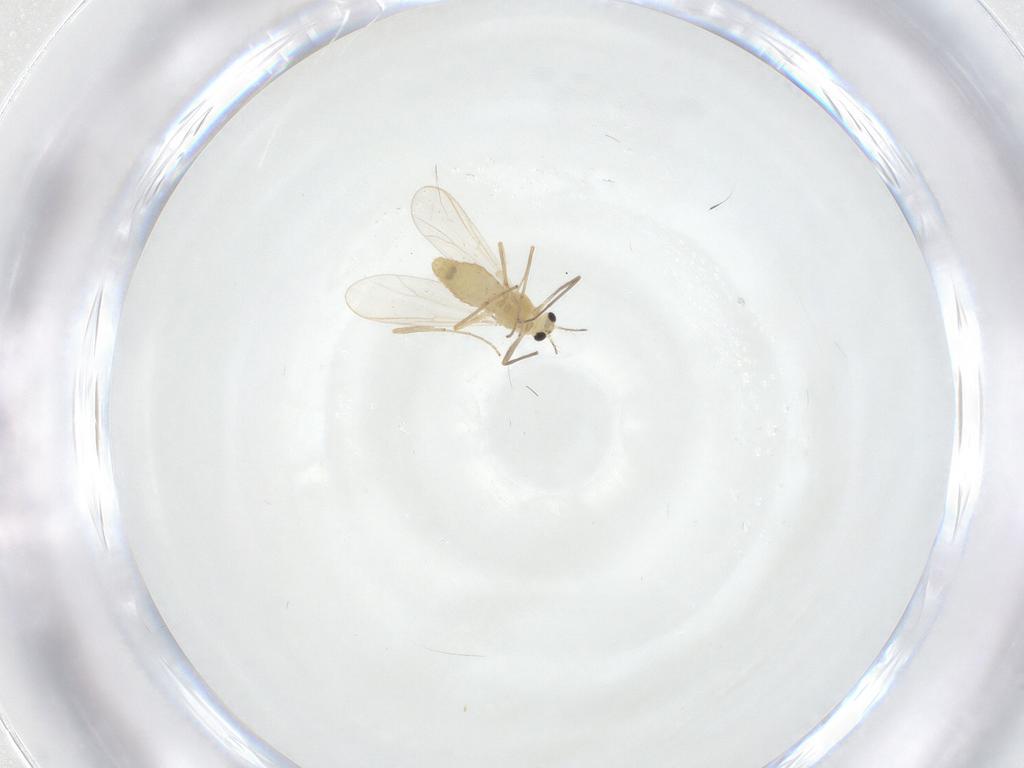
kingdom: Animalia
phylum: Arthropoda
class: Insecta
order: Diptera
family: Chironomidae
